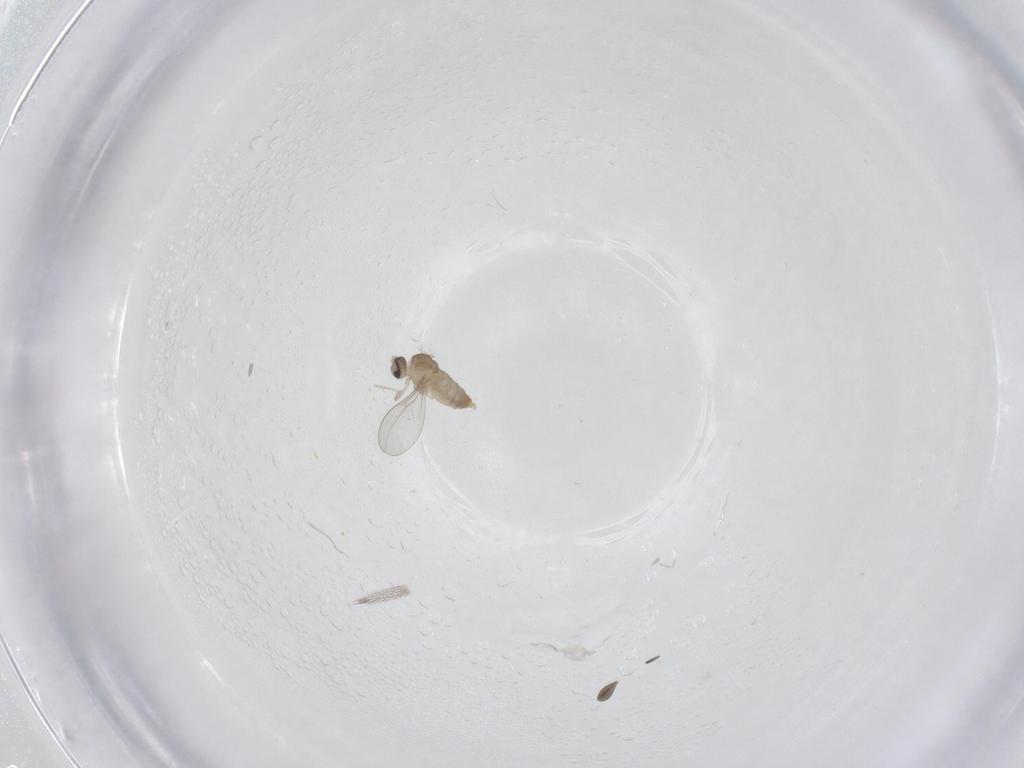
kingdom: Animalia
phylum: Arthropoda
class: Insecta
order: Diptera
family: Cecidomyiidae
